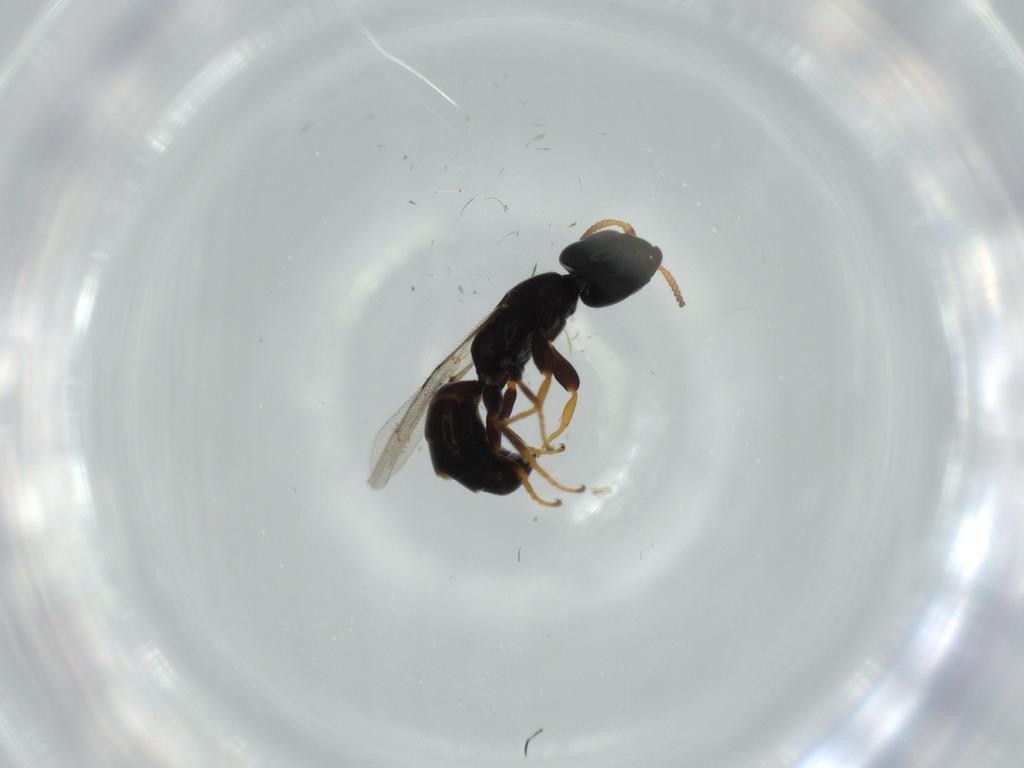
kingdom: Animalia
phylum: Arthropoda
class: Insecta
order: Hymenoptera
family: Bethylidae
